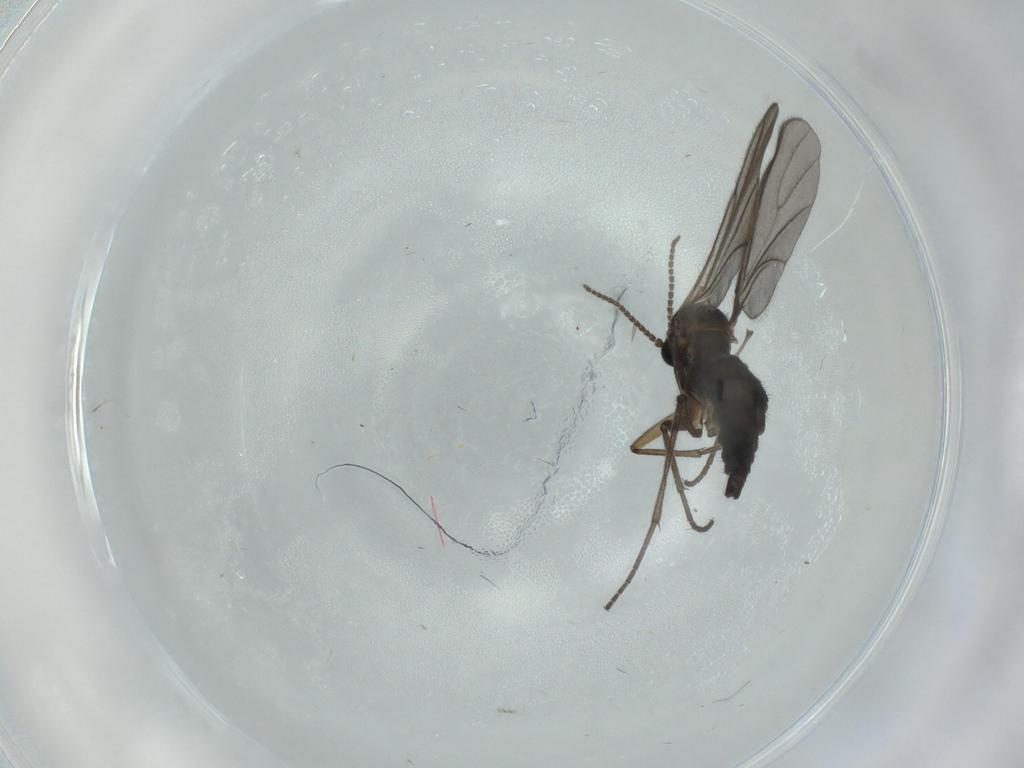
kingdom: Animalia
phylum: Arthropoda
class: Insecta
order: Diptera
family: Sciaridae
